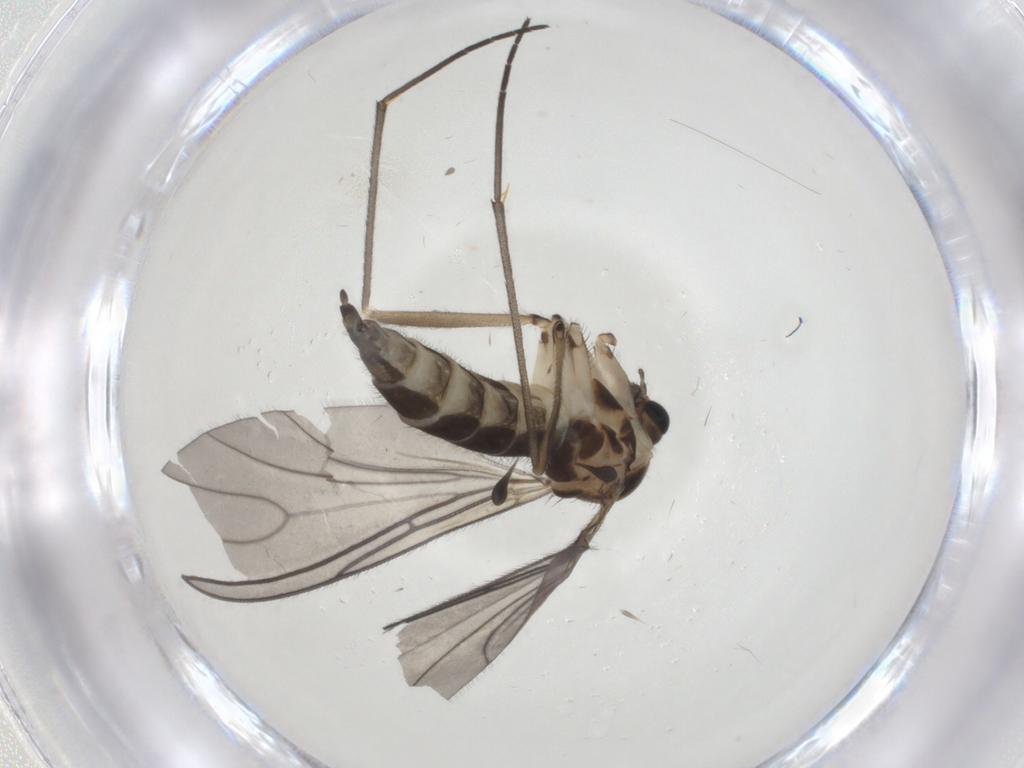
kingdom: Animalia
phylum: Arthropoda
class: Insecta
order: Diptera
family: Sciaridae
